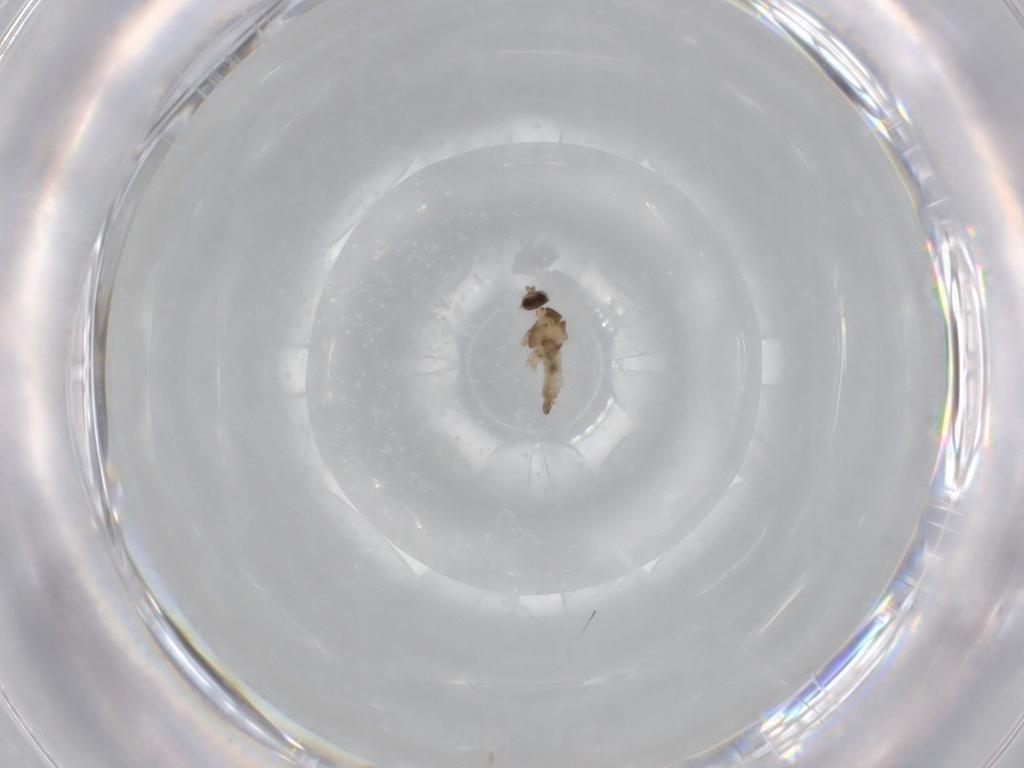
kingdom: Animalia
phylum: Arthropoda
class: Insecta
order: Diptera
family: Cecidomyiidae
